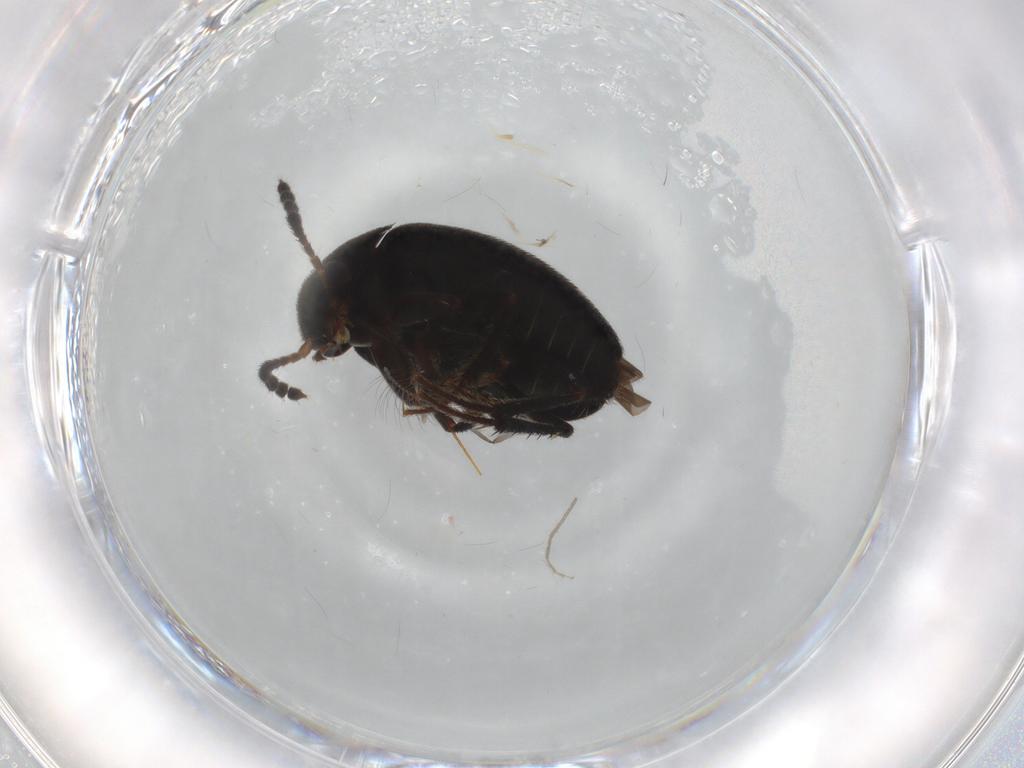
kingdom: Animalia
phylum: Arthropoda
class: Insecta
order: Coleoptera
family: Leiodidae
